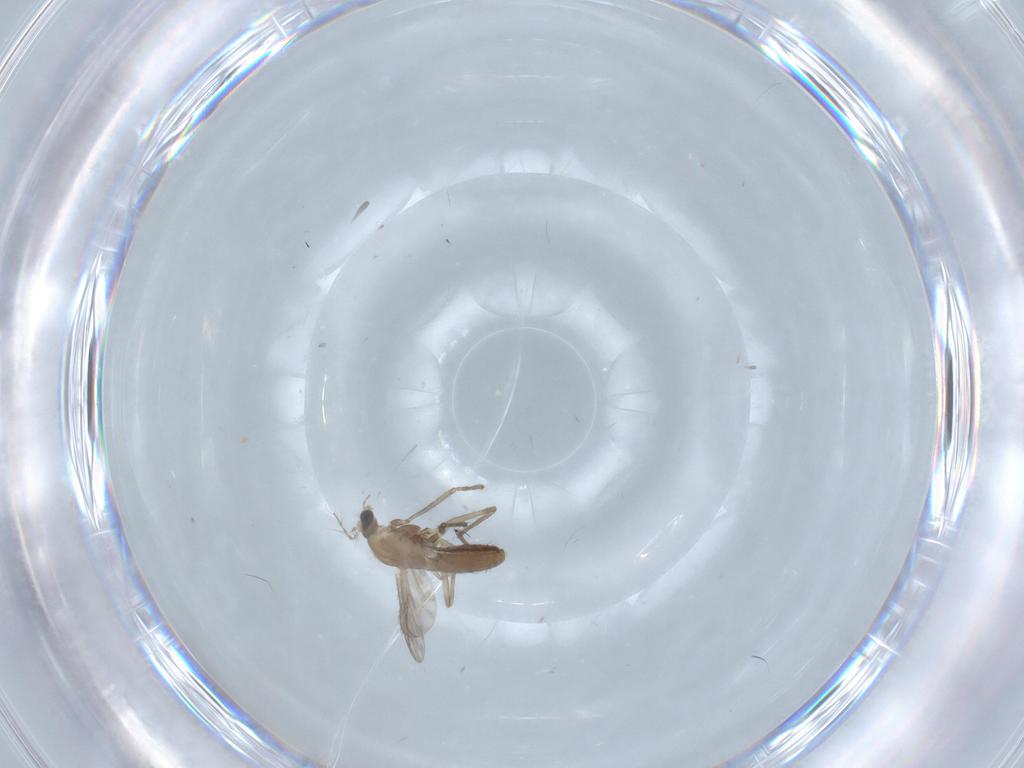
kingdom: Animalia
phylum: Arthropoda
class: Insecta
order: Diptera
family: Chironomidae
